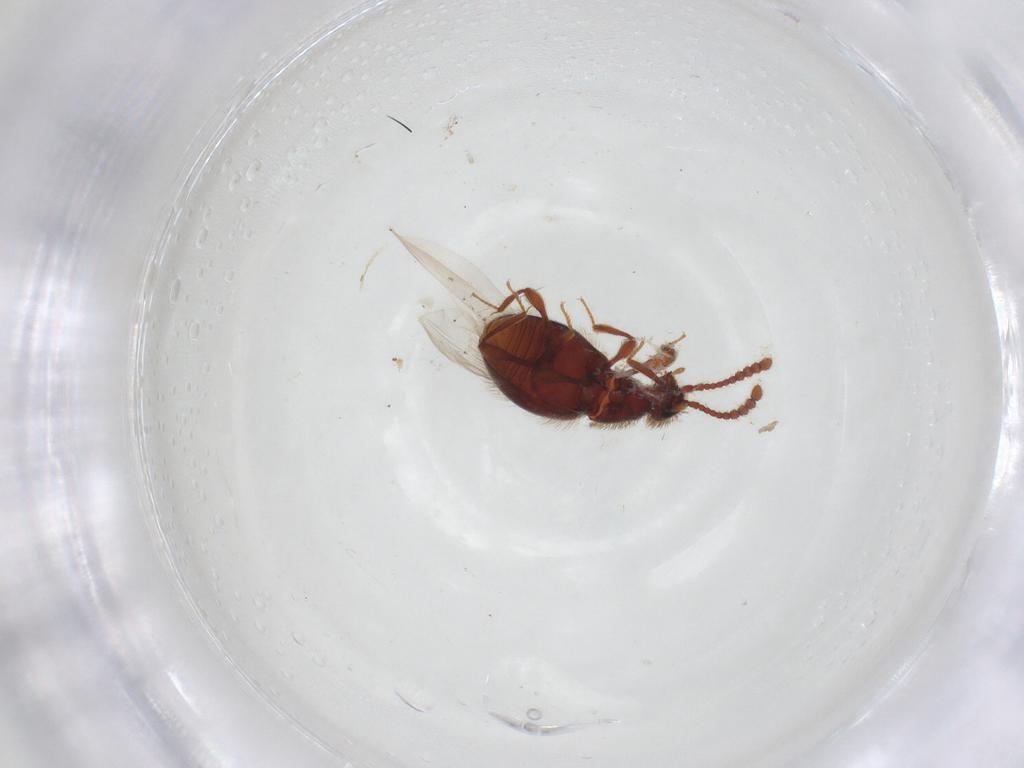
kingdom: Animalia
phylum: Arthropoda
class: Insecta
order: Coleoptera
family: Staphylinidae
